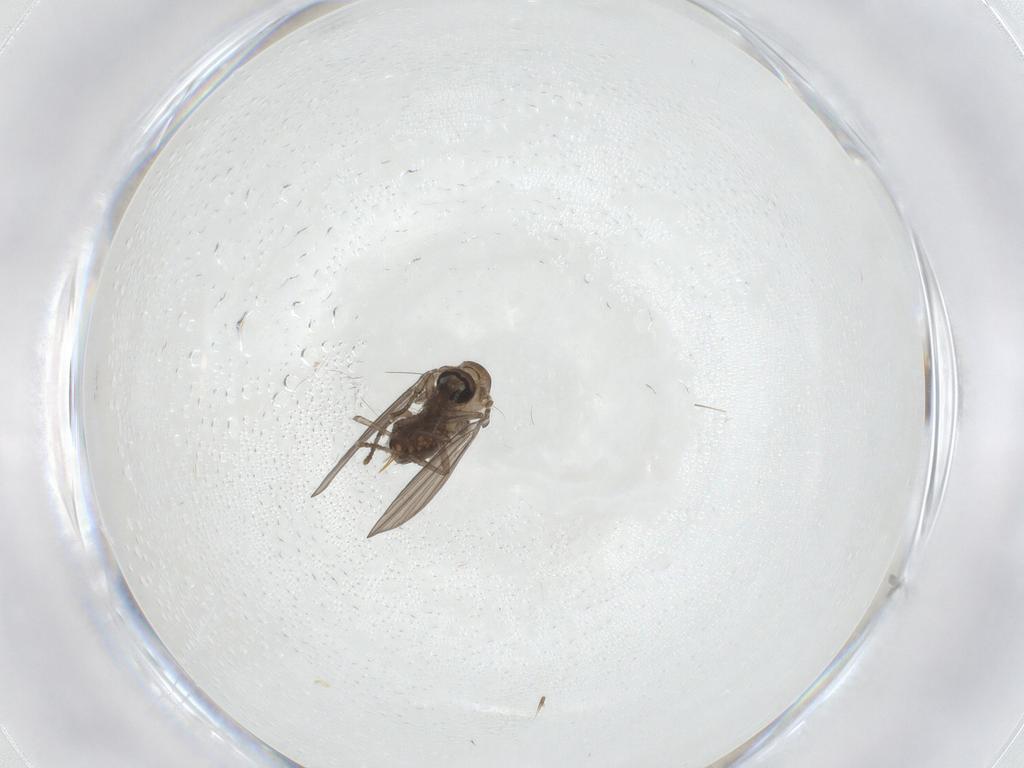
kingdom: Animalia
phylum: Arthropoda
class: Insecta
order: Diptera
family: Psychodidae
